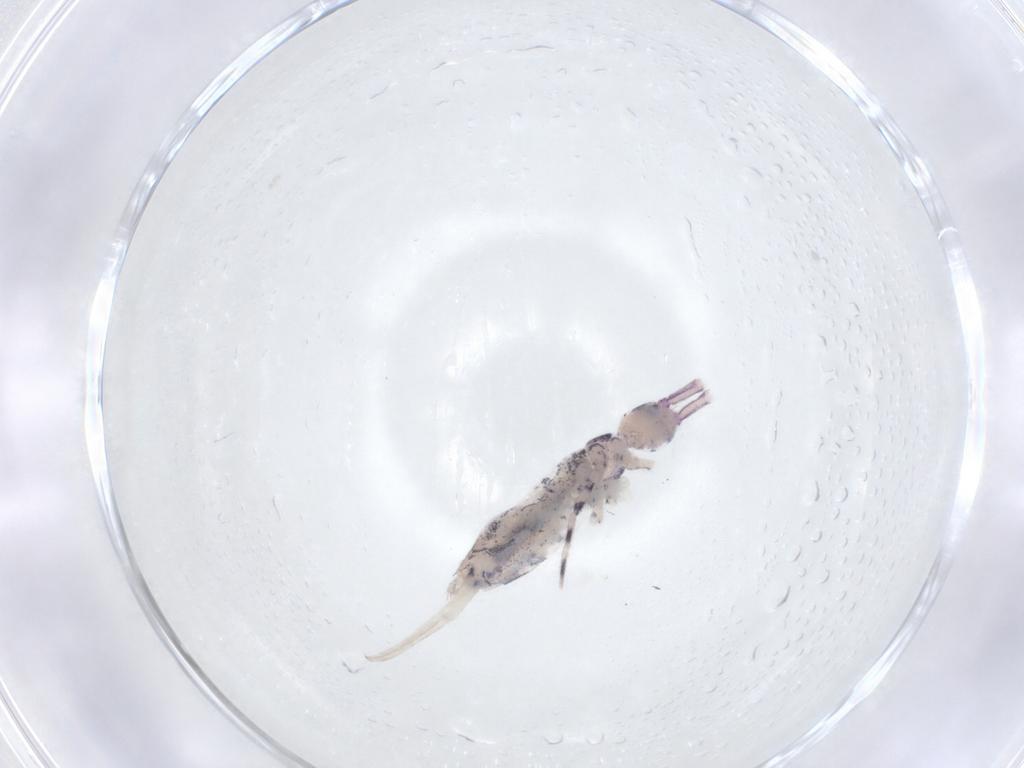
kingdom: Animalia
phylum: Arthropoda
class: Collembola
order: Entomobryomorpha
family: Entomobryidae
